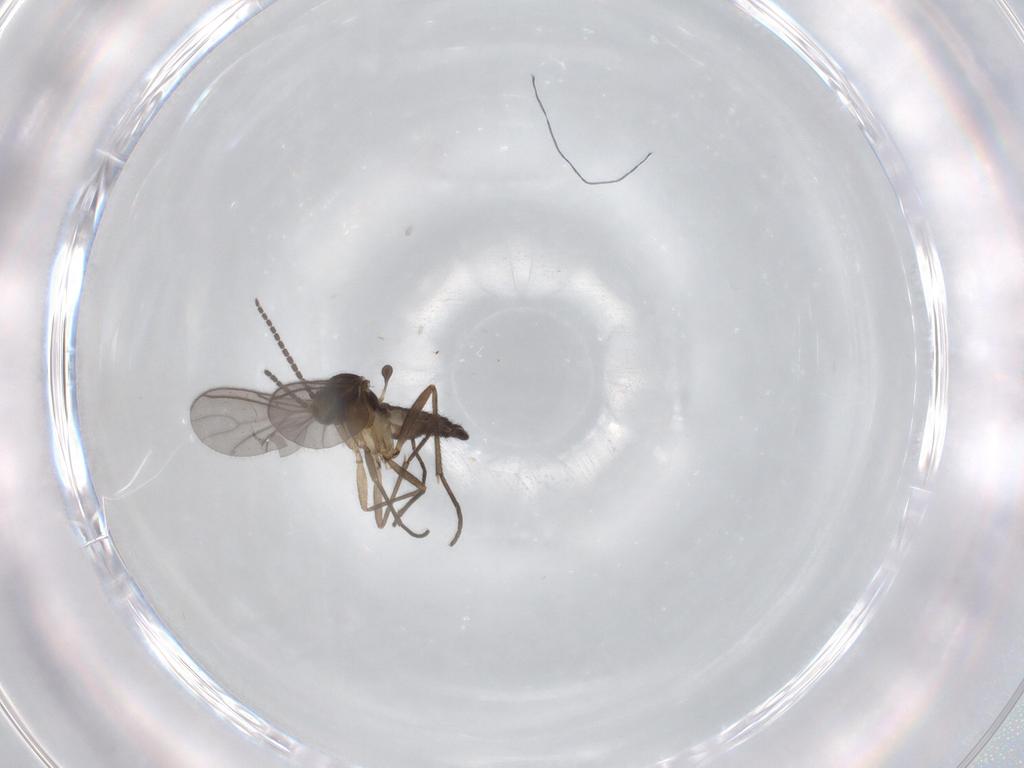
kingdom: Animalia
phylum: Arthropoda
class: Insecta
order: Diptera
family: Sciaridae
